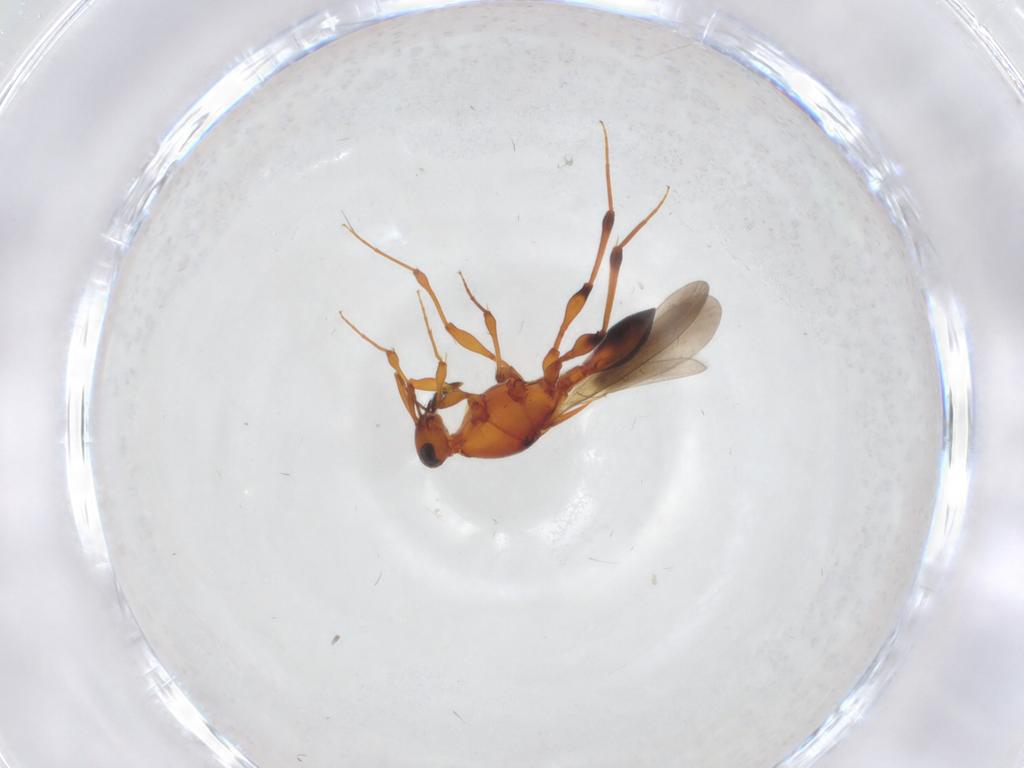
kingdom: Animalia
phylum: Arthropoda
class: Insecta
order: Hymenoptera
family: Platygastridae
